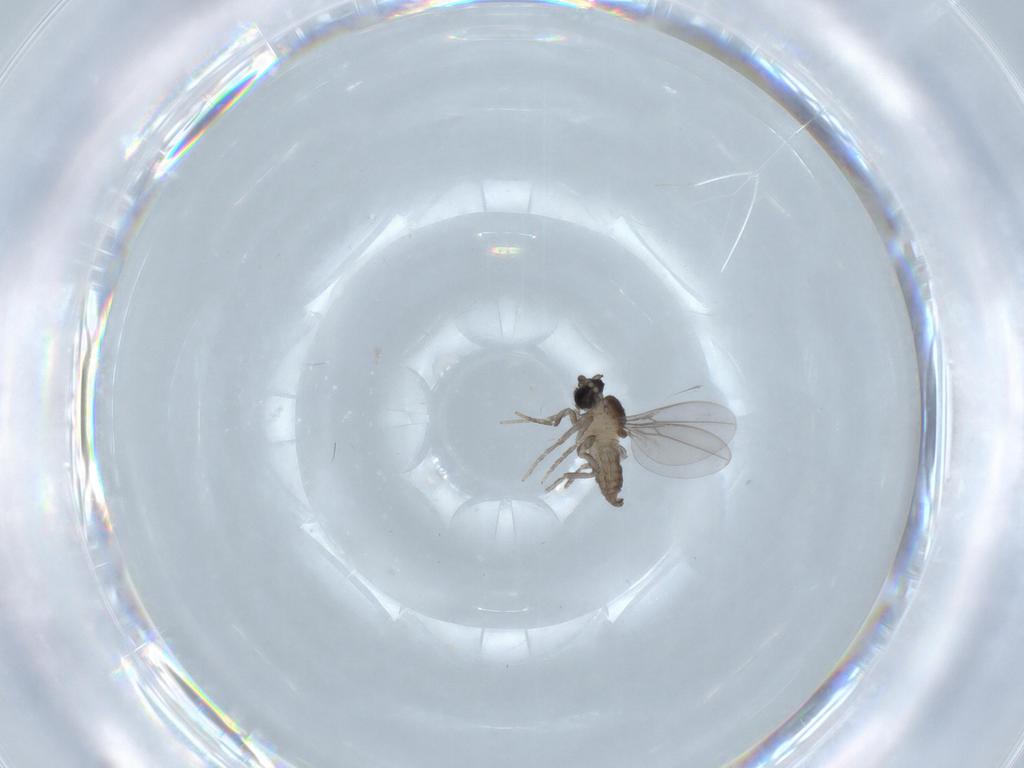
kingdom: Animalia
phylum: Arthropoda
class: Insecta
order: Diptera
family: Cecidomyiidae
